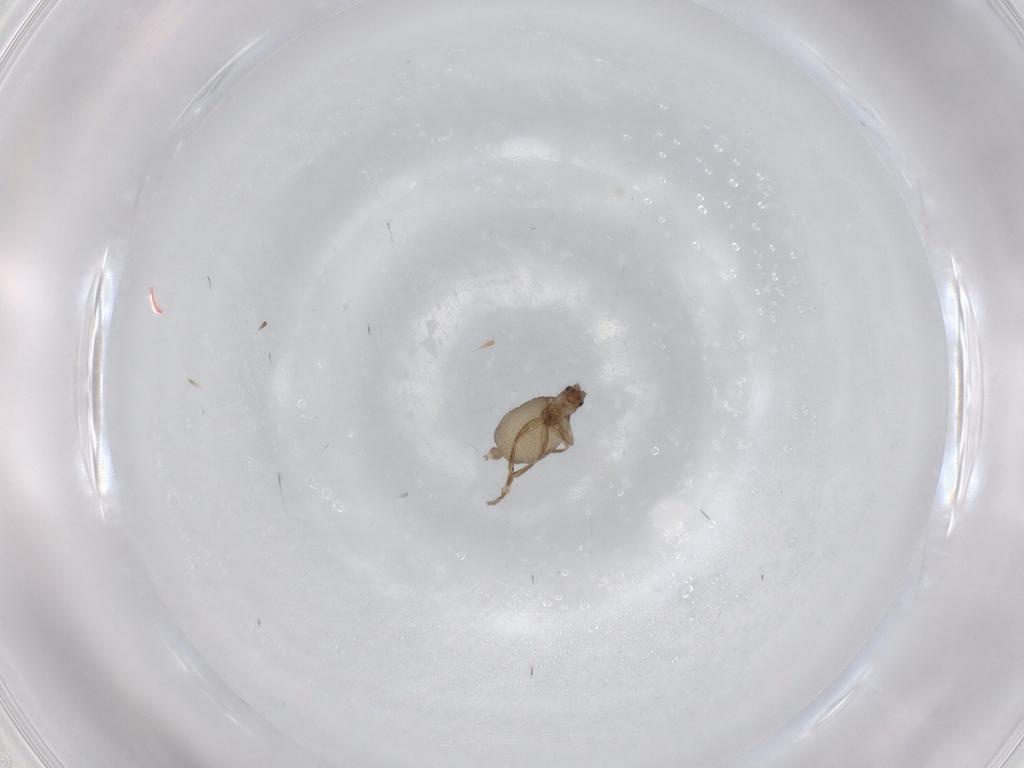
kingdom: Animalia
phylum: Arthropoda
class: Insecta
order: Diptera
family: Phoridae
